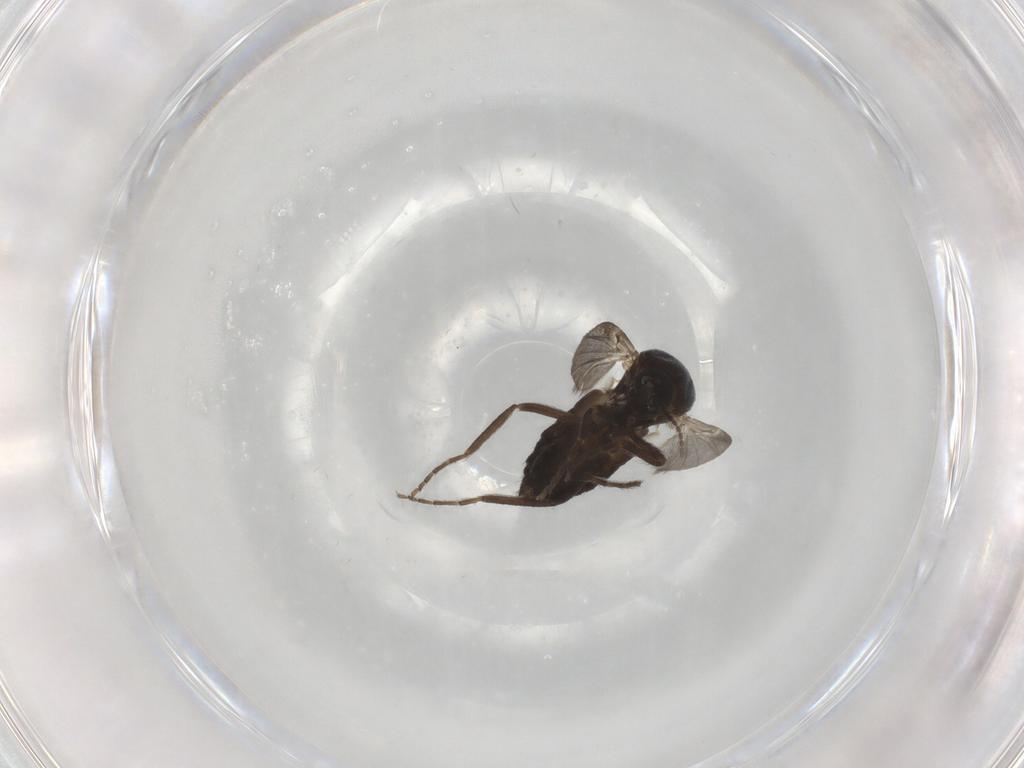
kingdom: Animalia
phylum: Arthropoda
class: Insecta
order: Diptera
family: Ceratopogonidae
